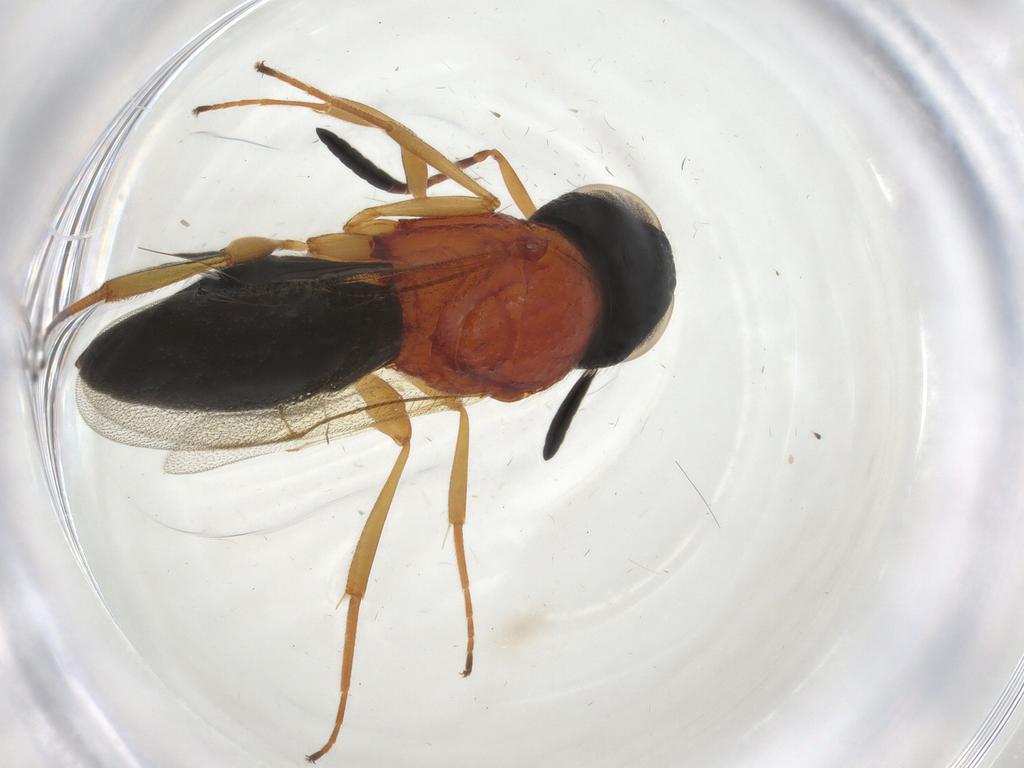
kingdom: Animalia
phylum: Arthropoda
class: Insecta
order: Hymenoptera
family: Scelionidae
